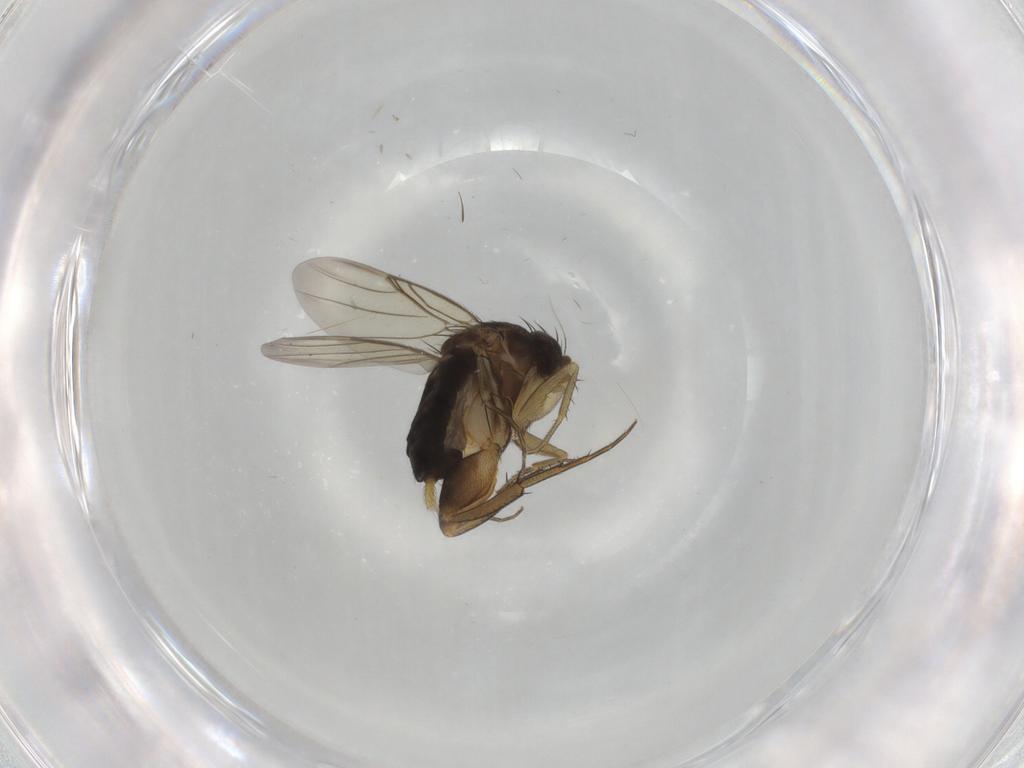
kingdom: Animalia
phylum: Arthropoda
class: Insecta
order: Diptera
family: Phoridae
